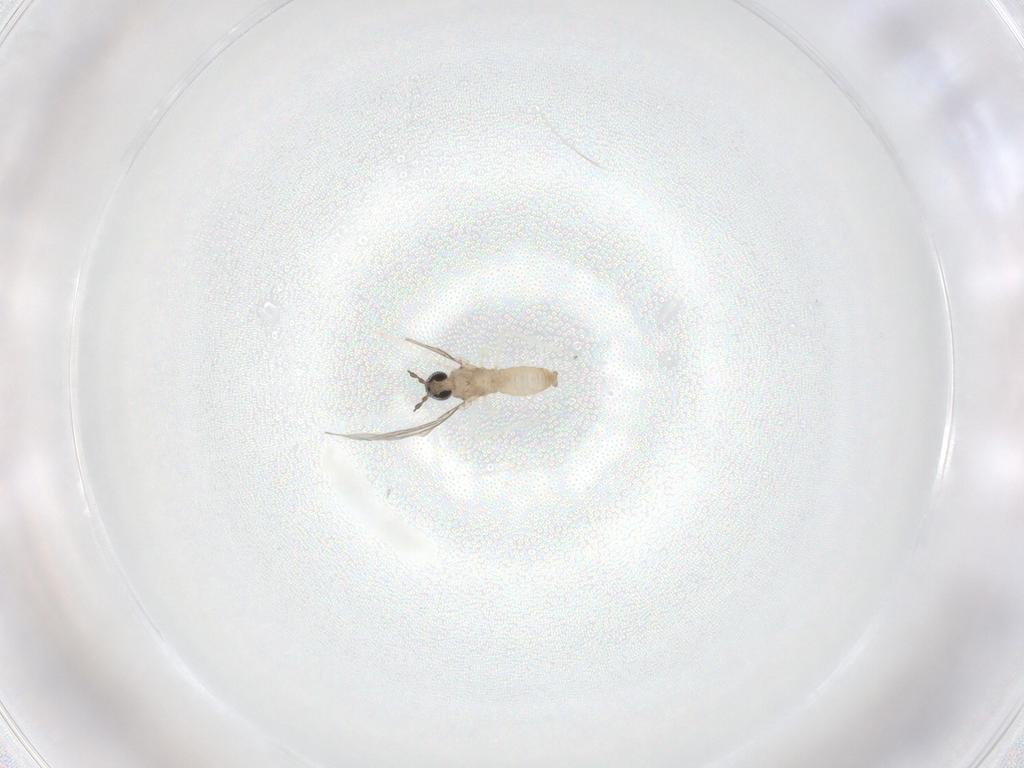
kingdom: Animalia
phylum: Arthropoda
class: Insecta
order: Diptera
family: Cecidomyiidae
